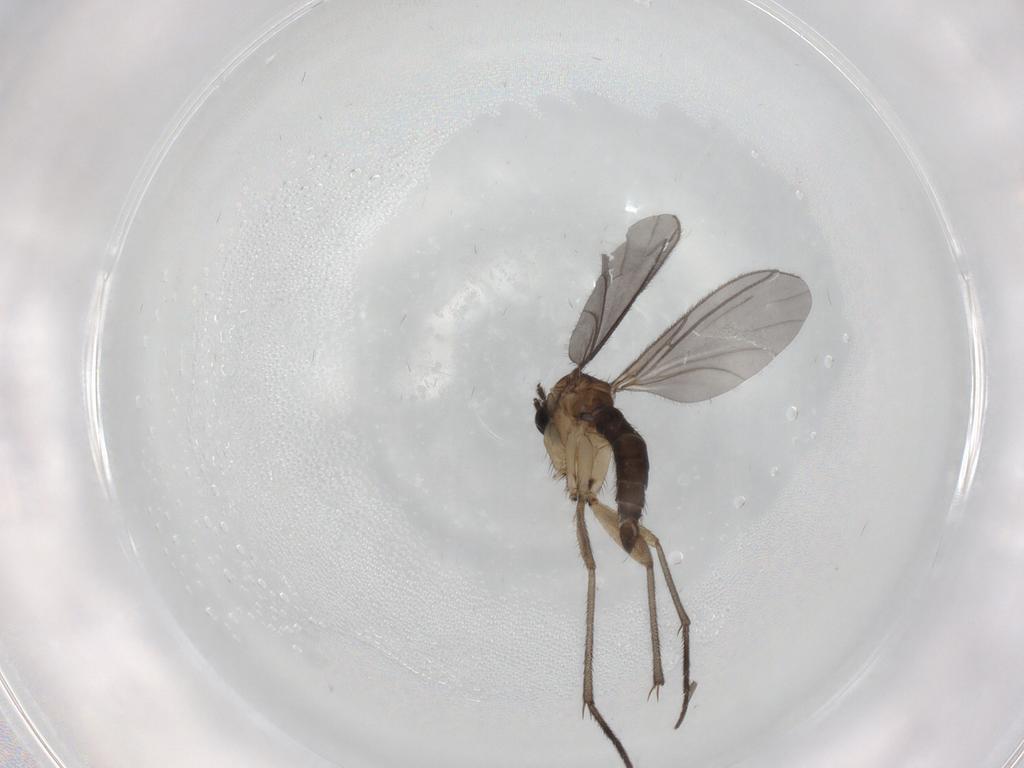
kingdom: Animalia
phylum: Arthropoda
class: Insecta
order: Diptera
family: Sciaridae
